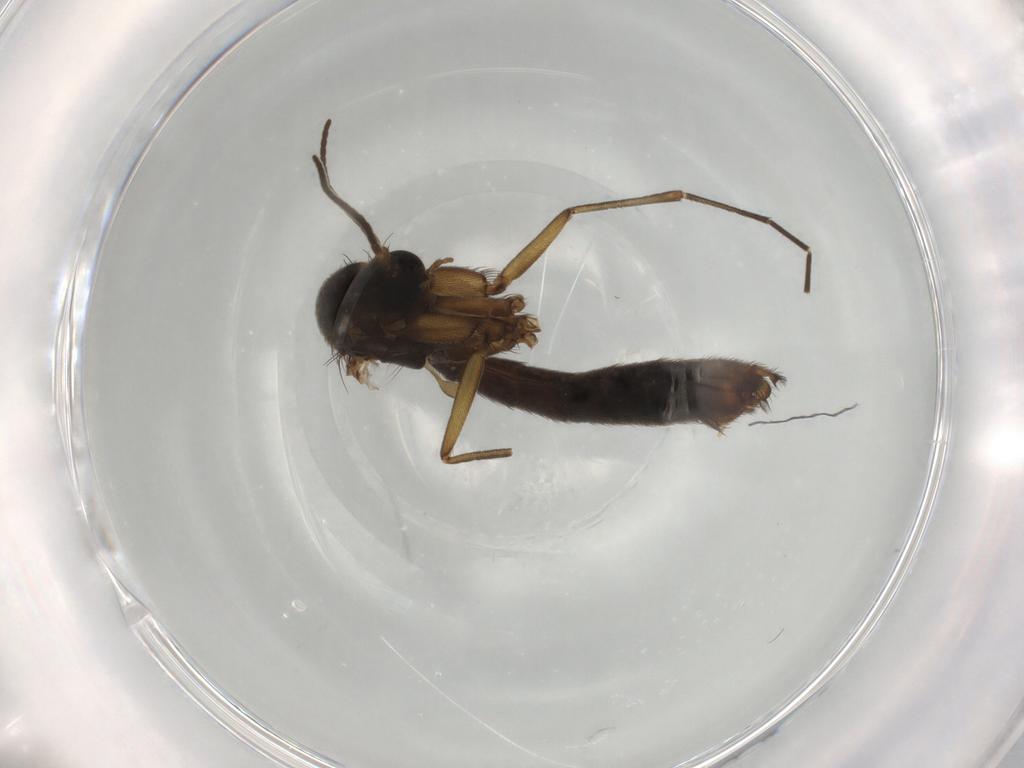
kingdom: Animalia
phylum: Arthropoda
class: Insecta
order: Diptera
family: Mycetophilidae
